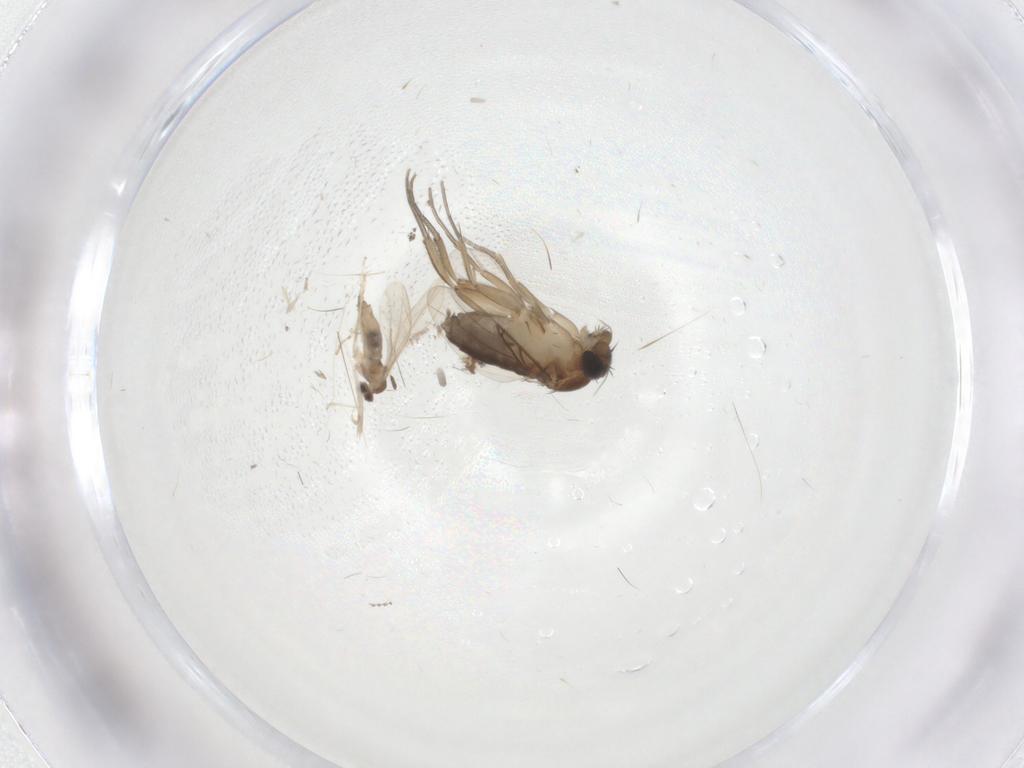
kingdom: Animalia
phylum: Arthropoda
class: Insecta
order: Diptera
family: Phoridae
